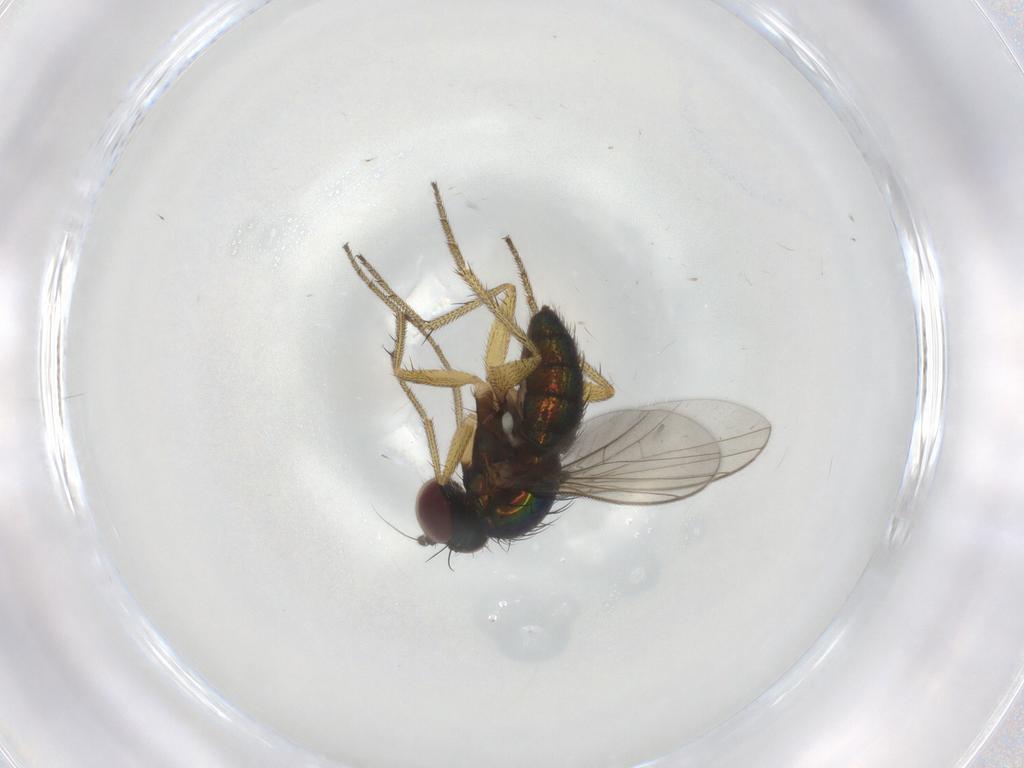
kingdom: Animalia
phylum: Arthropoda
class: Insecta
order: Diptera
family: Dolichopodidae
